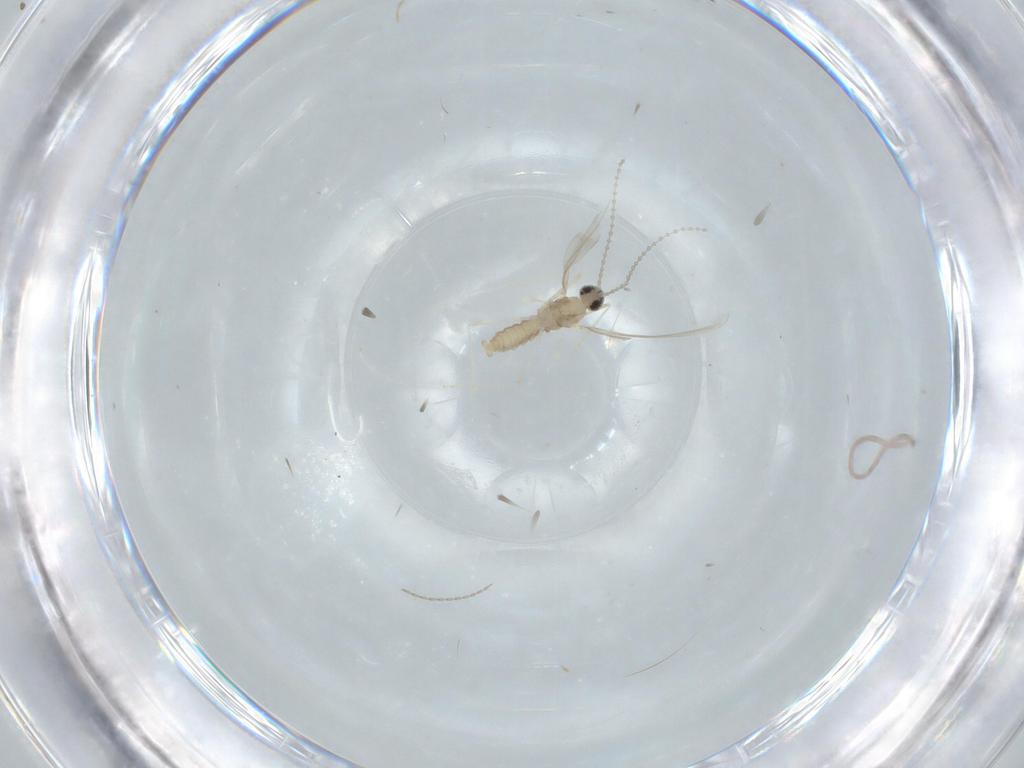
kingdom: Animalia
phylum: Arthropoda
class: Insecta
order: Diptera
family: Cecidomyiidae
